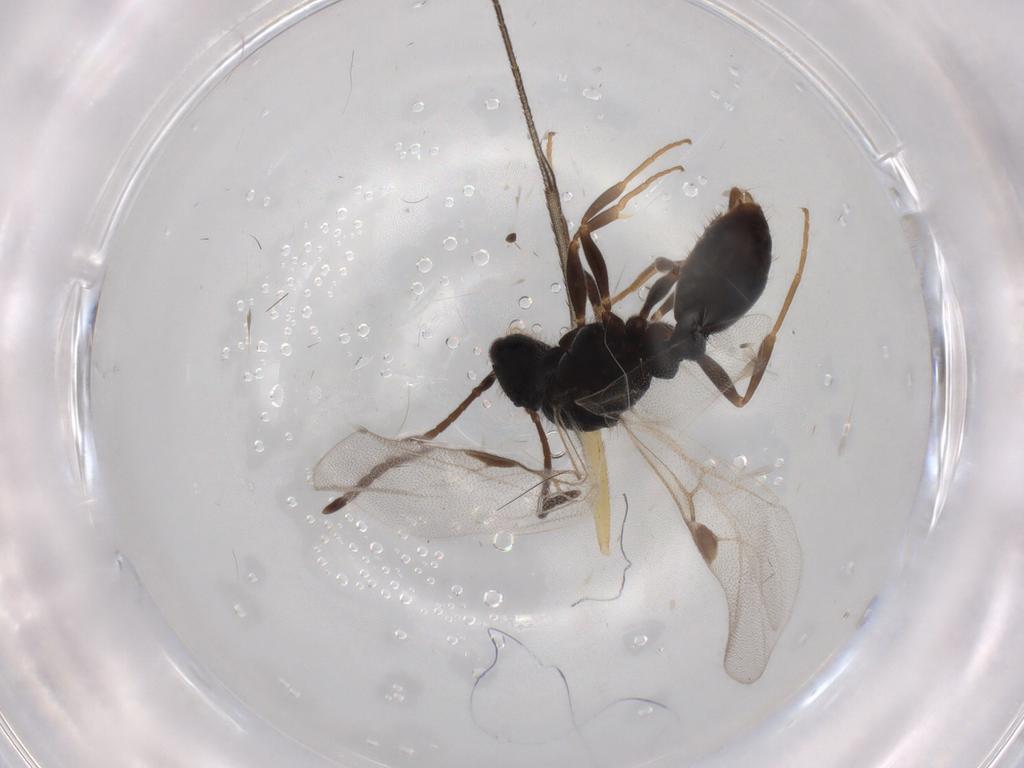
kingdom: Animalia
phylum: Arthropoda
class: Insecta
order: Hymenoptera
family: Formicidae
